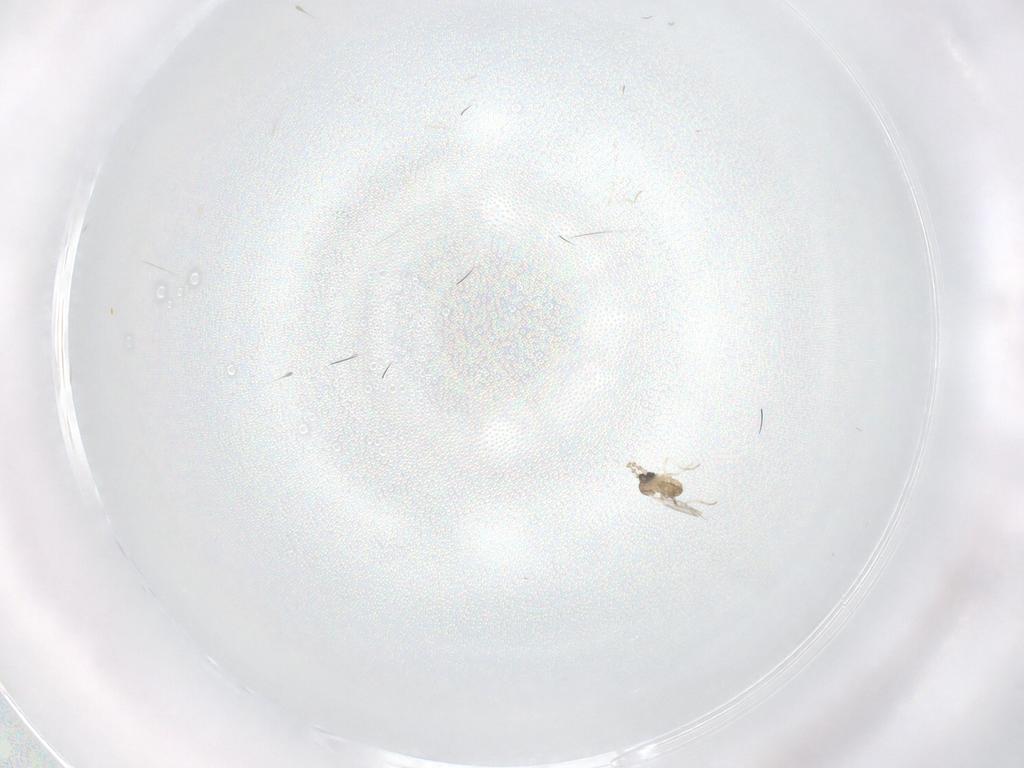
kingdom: Animalia
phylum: Arthropoda
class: Insecta
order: Diptera
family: Cecidomyiidae
